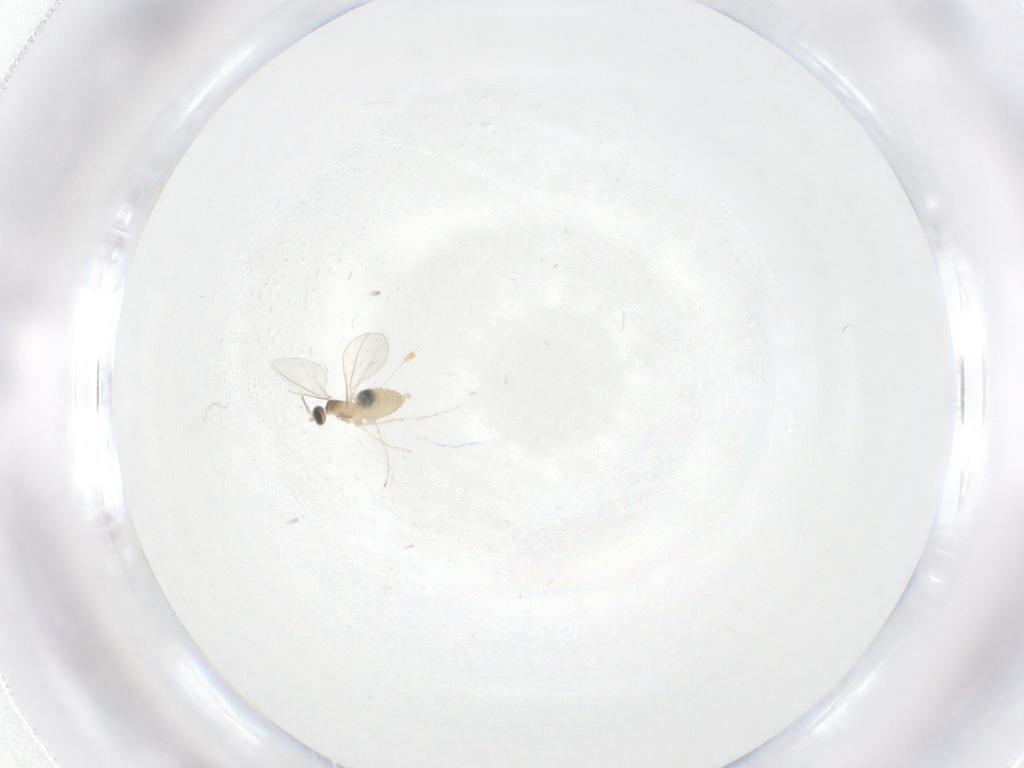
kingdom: Animalia
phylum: Arthropoda
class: Insecta
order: Diptera
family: Cecidomyiidae
